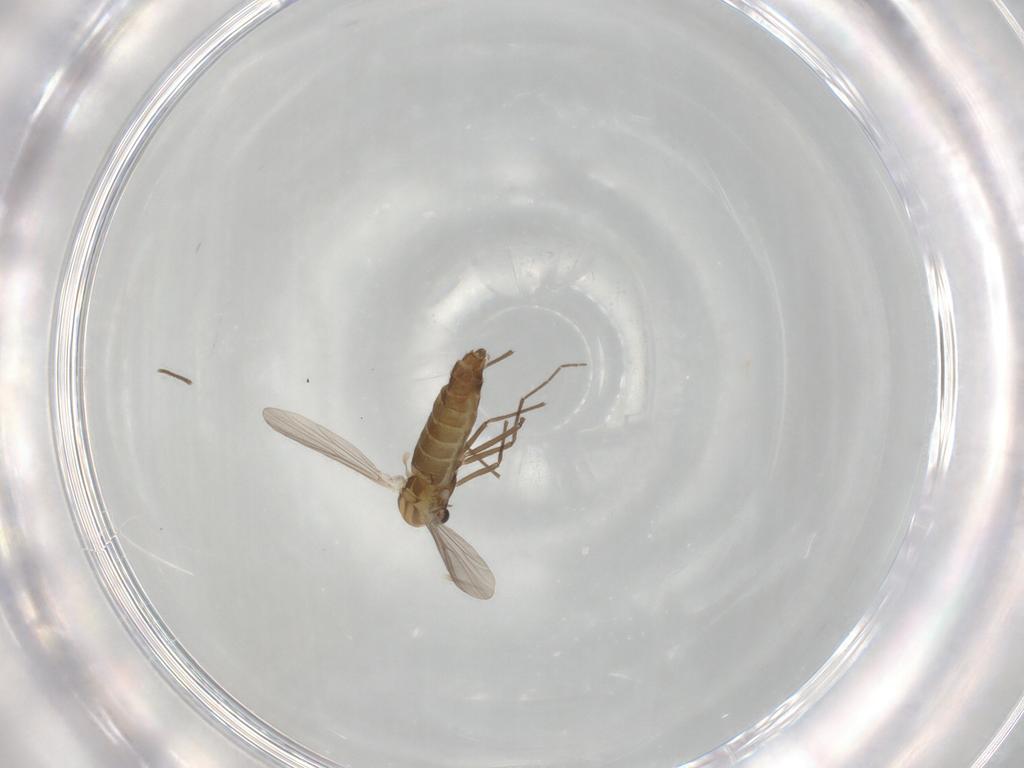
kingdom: Animalia
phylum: Arthropoda
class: Insecta
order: Diptera
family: Chironomidae
